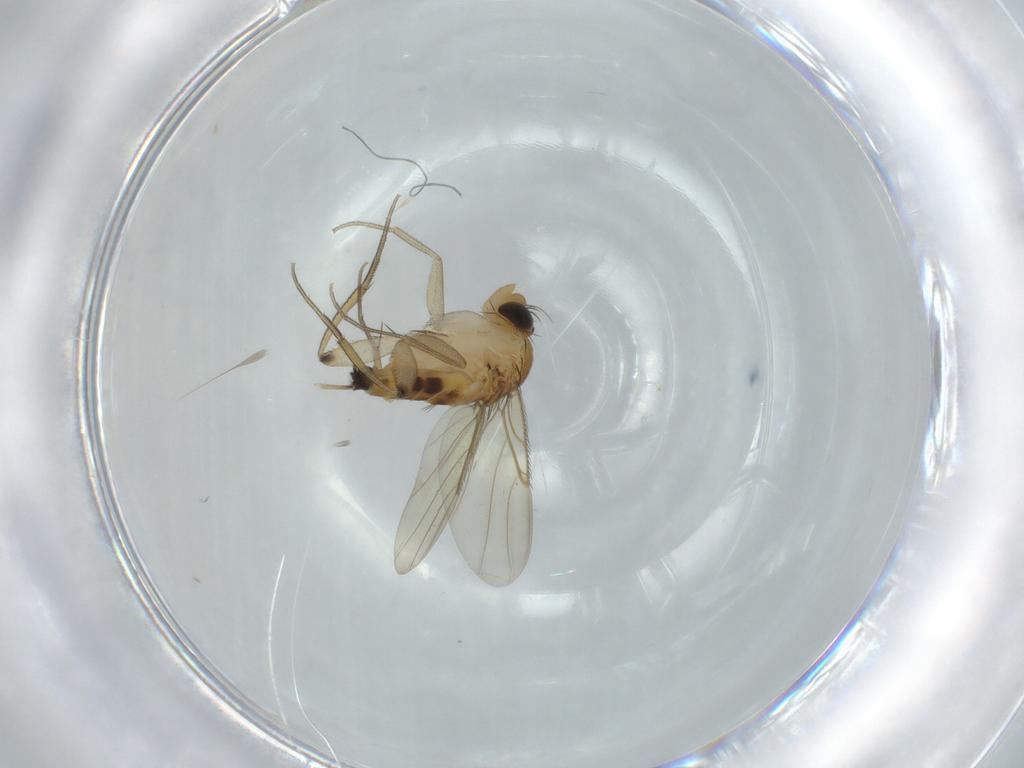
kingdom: Animalia
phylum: Arthropoda
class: Insecta
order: Diptera
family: Phoridae
